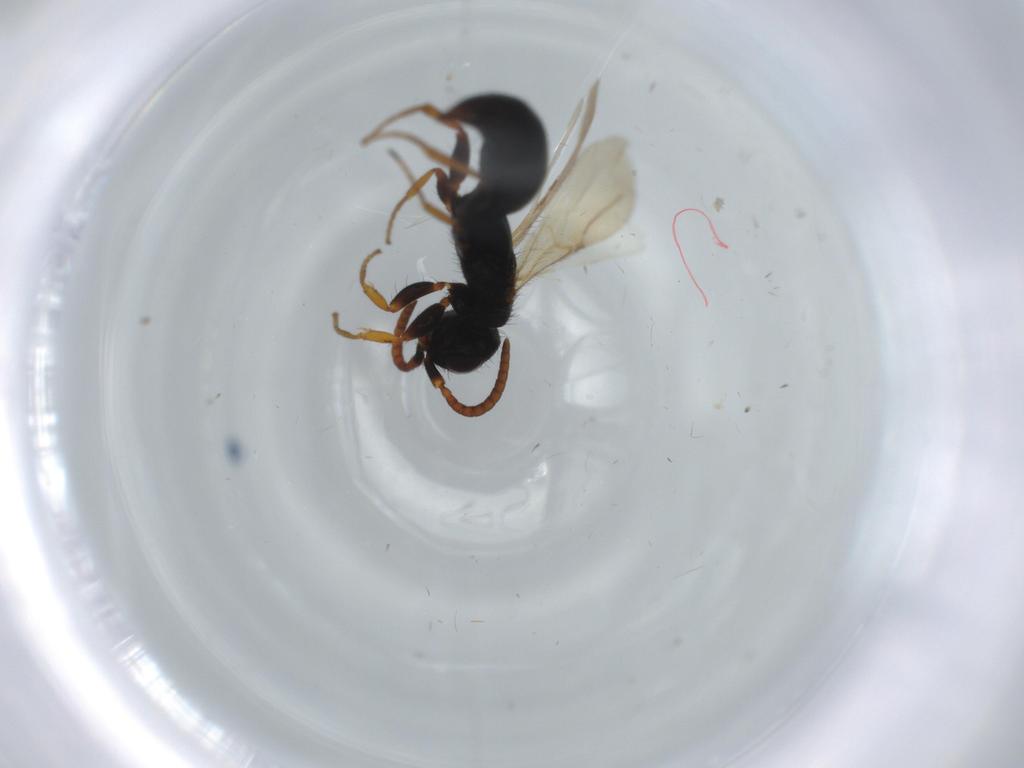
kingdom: Animalia
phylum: Arthropoda
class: Insecta
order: Hymenoptera
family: Bethylidae
